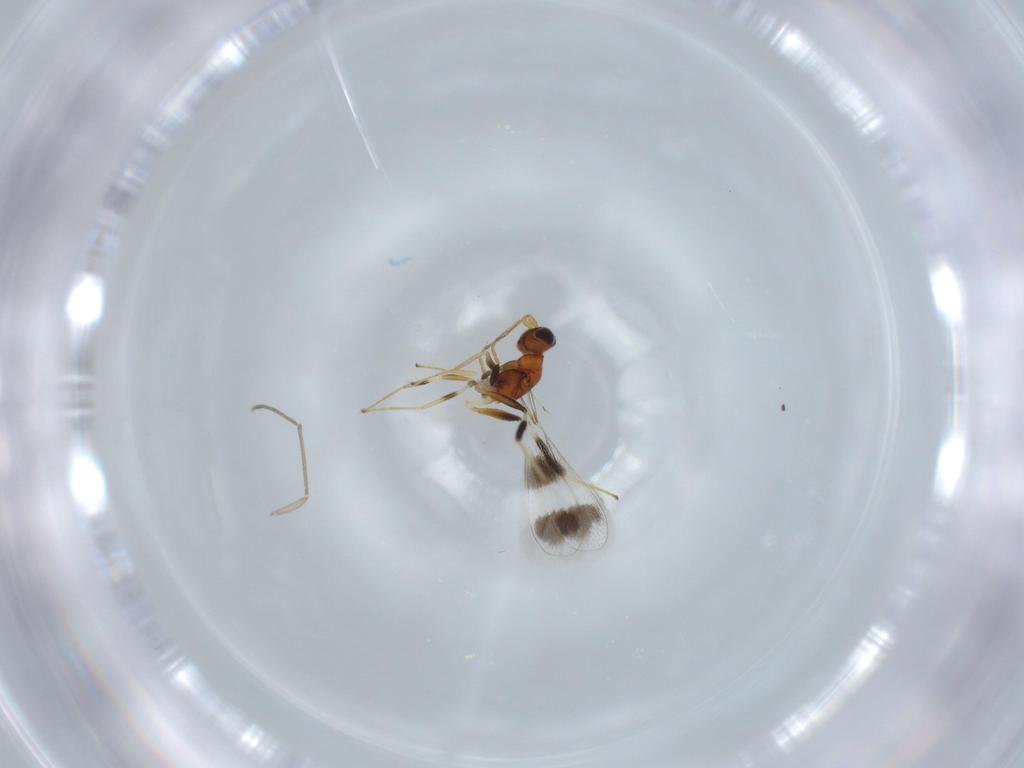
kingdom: Animalia
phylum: Arthropoda
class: Insecta
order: Hymenoptera
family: Mymaridae
